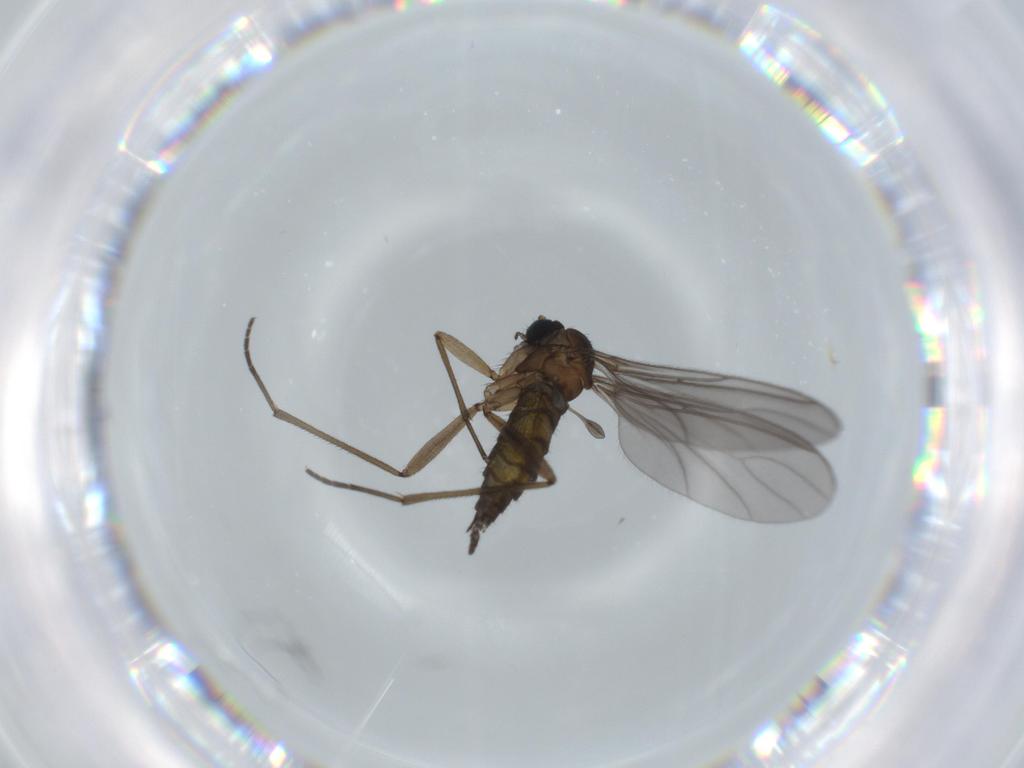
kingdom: Animalia
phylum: Arthropoda
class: Insecta
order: Diptera
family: Sciaridae
